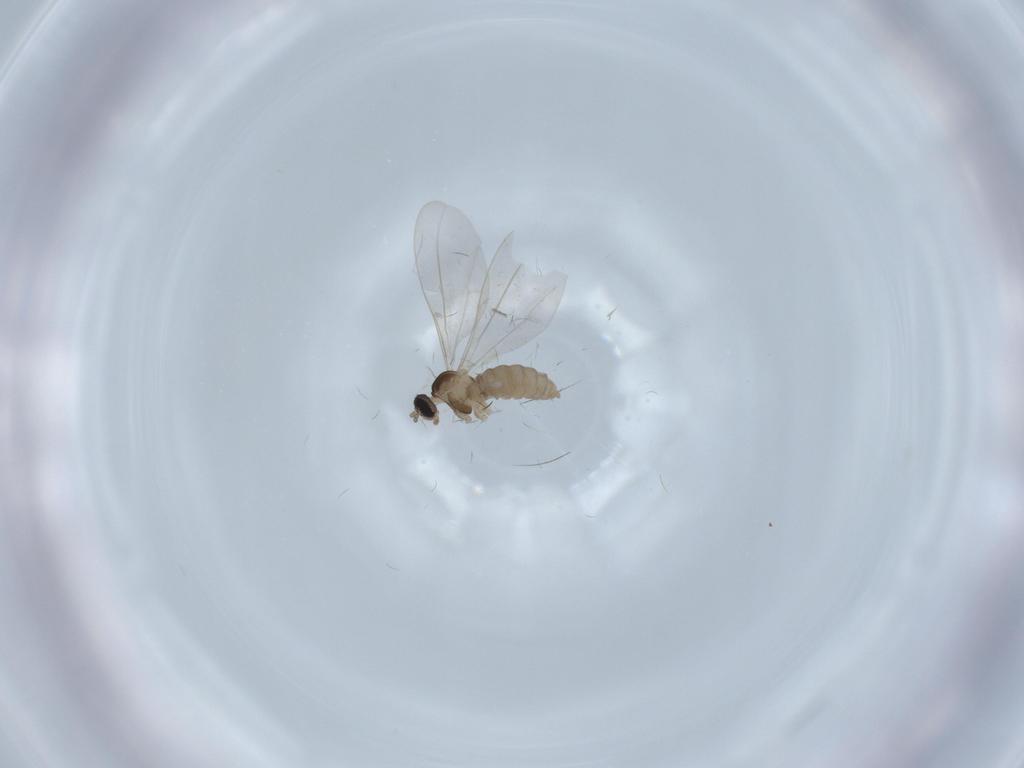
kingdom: Animalia
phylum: Arthropoda
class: Insecta
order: Diptera
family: Cecidomyiidae
